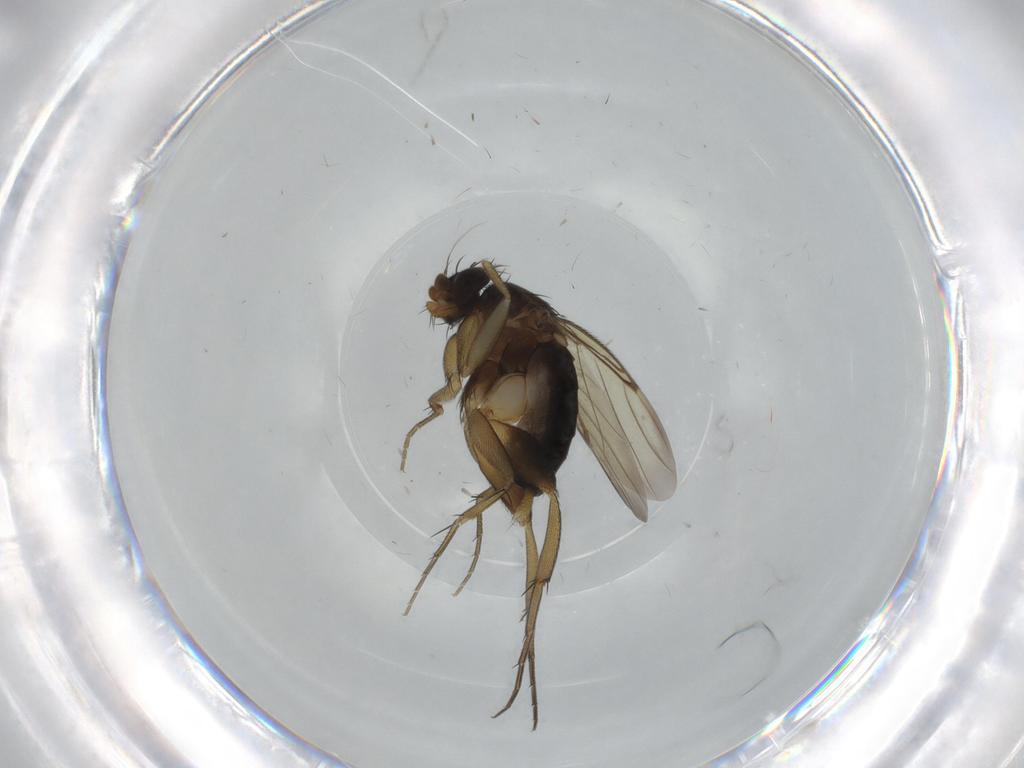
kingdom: Animalia
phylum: Arthropoda
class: Insecta
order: Diptera
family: Phoridae
